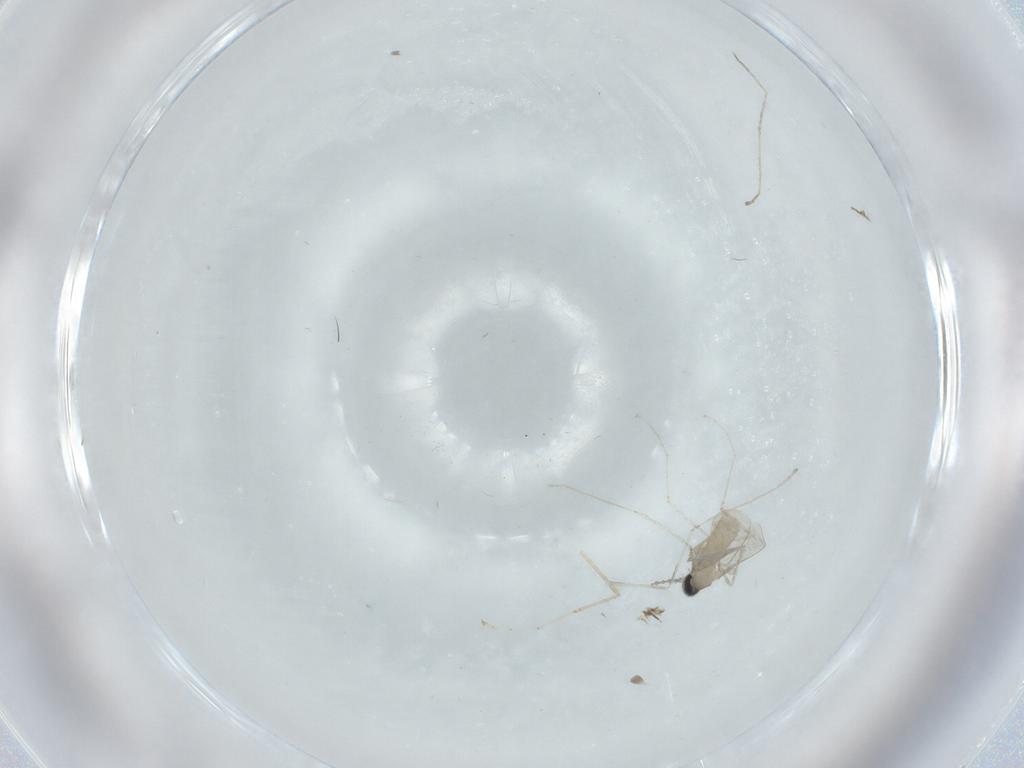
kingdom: Animalia
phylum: Arthropoda
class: Insecta
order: Diptera
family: Cecidomyiidae
